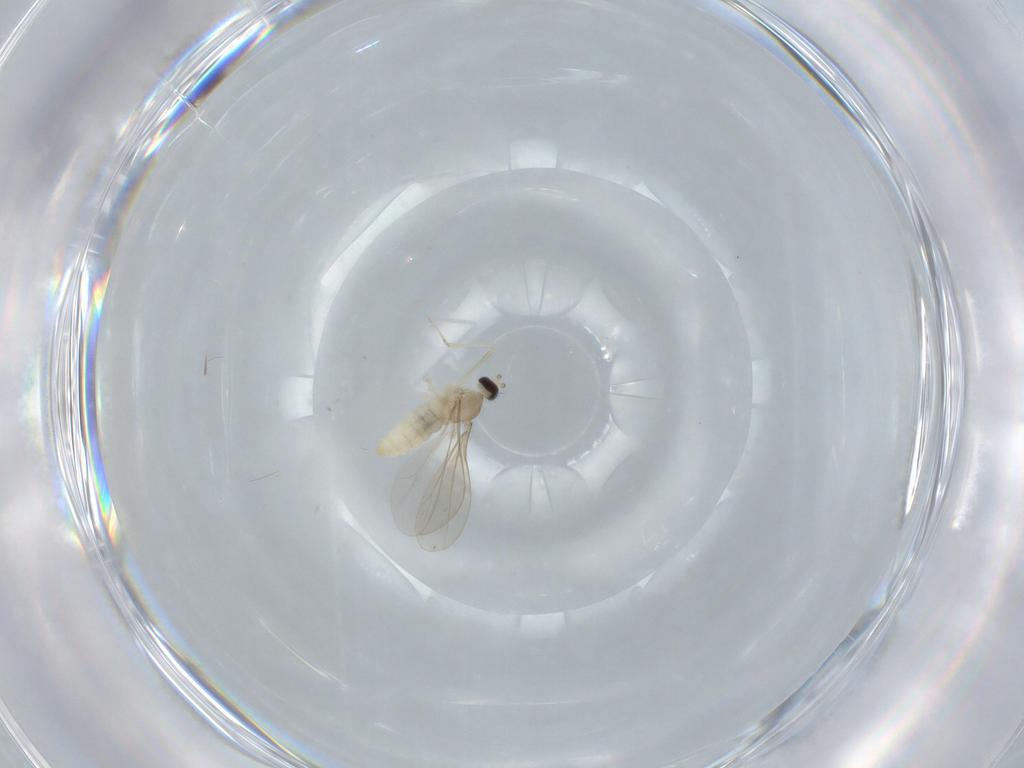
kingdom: Animalia
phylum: Arthropoda
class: Insecta
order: Diptera
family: Cecidomyiidae
